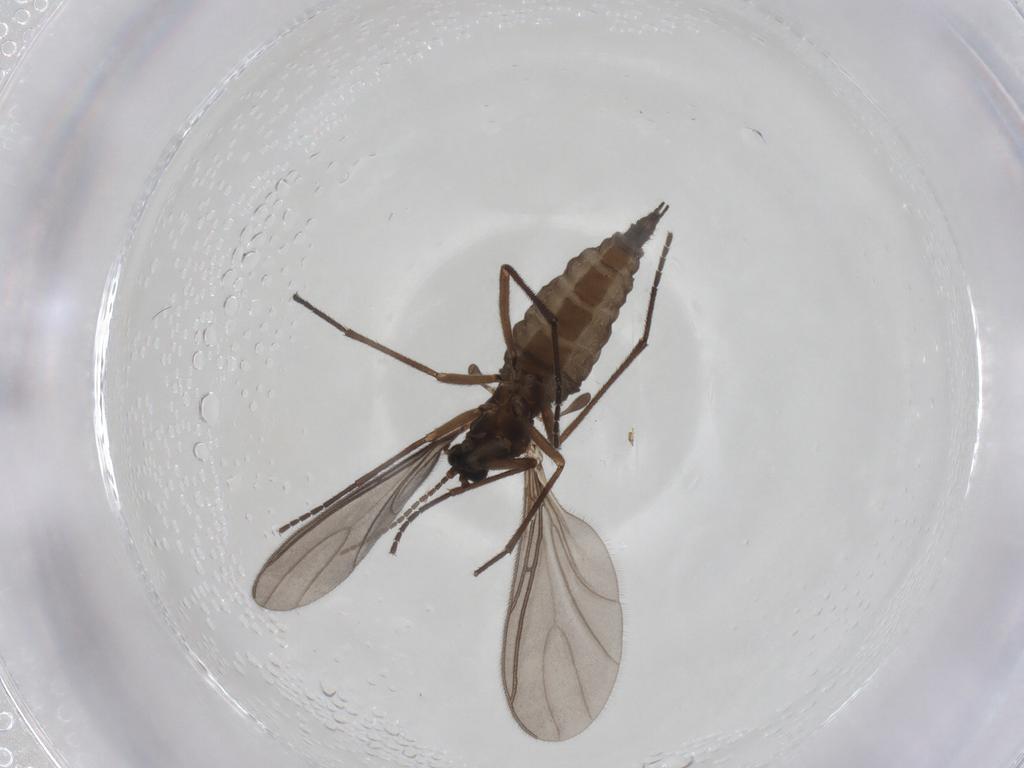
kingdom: Animalia
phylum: Arthropoda
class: Insecta
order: Diptera
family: Sciaridae
